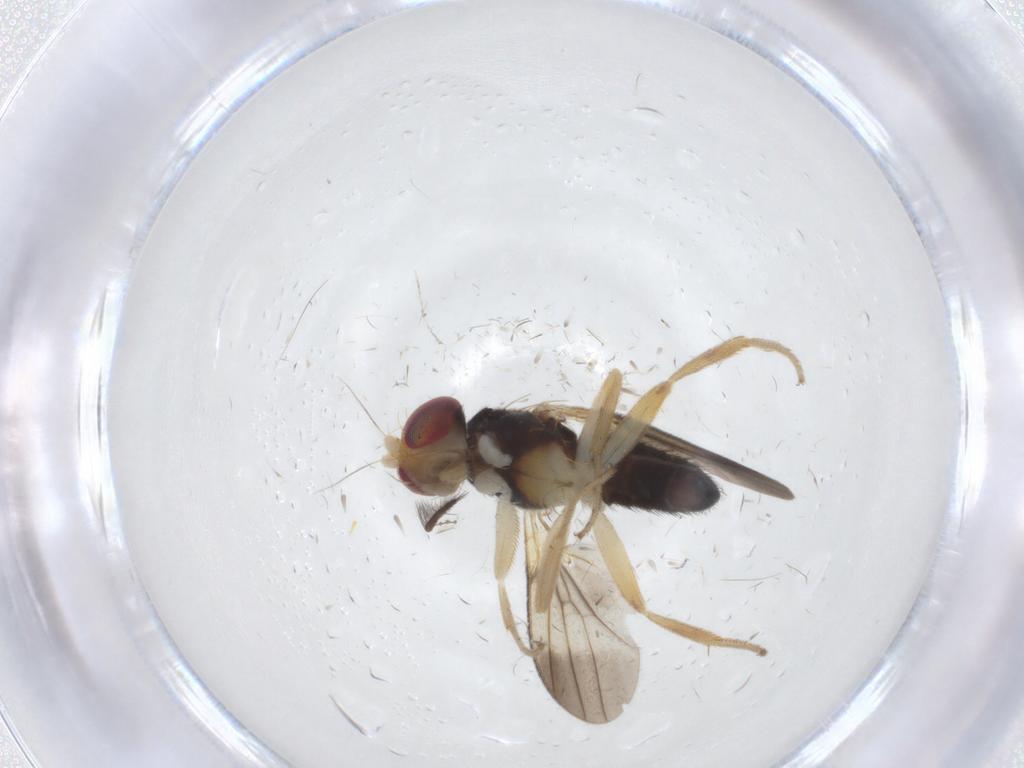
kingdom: Animalia
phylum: Arthropoda
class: Insecta
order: Diptera
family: Clusiidae
